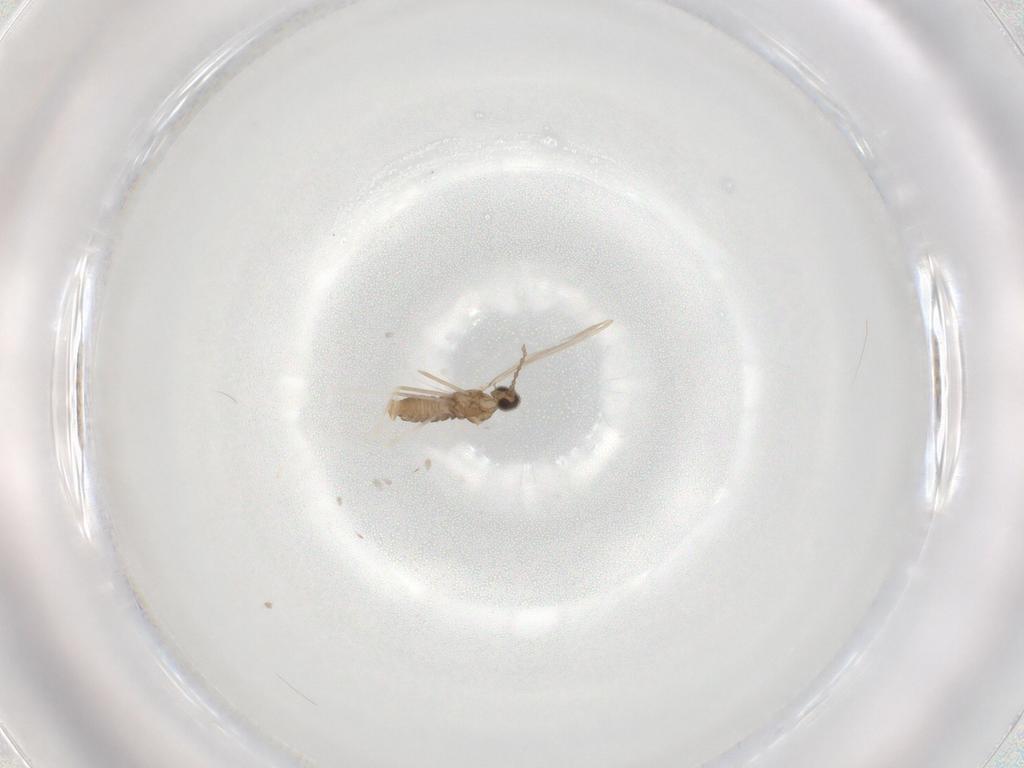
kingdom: Animalia
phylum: Arthropoda
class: Insecta
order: Diptera
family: Cecidomyiidae
